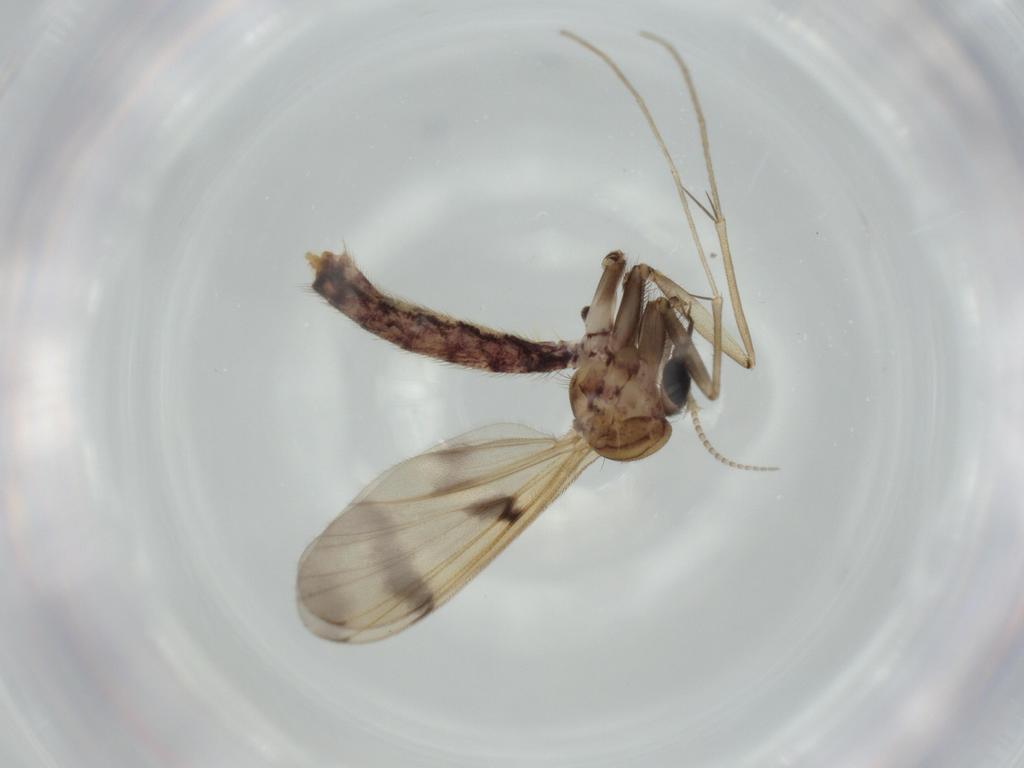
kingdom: Animalia
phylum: Arthropoda
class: Insecta
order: Diptera
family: Mycetophilidae
